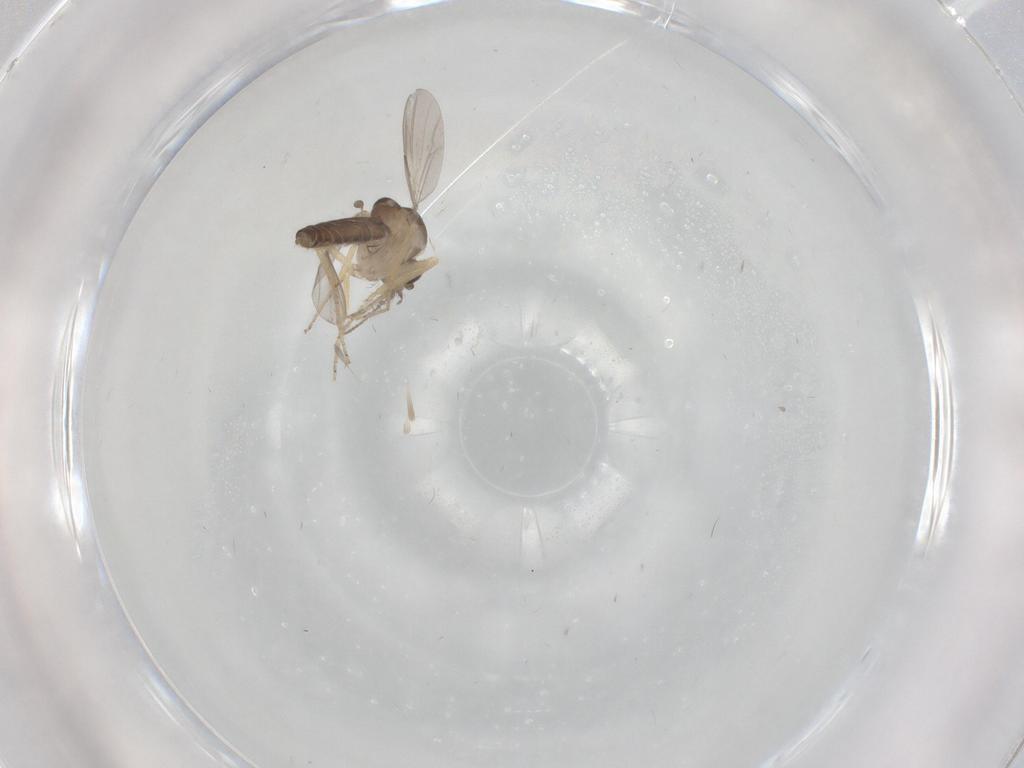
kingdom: Animalia
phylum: Arthropoda
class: Insecta
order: Diptera
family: Ceratopogonidae
